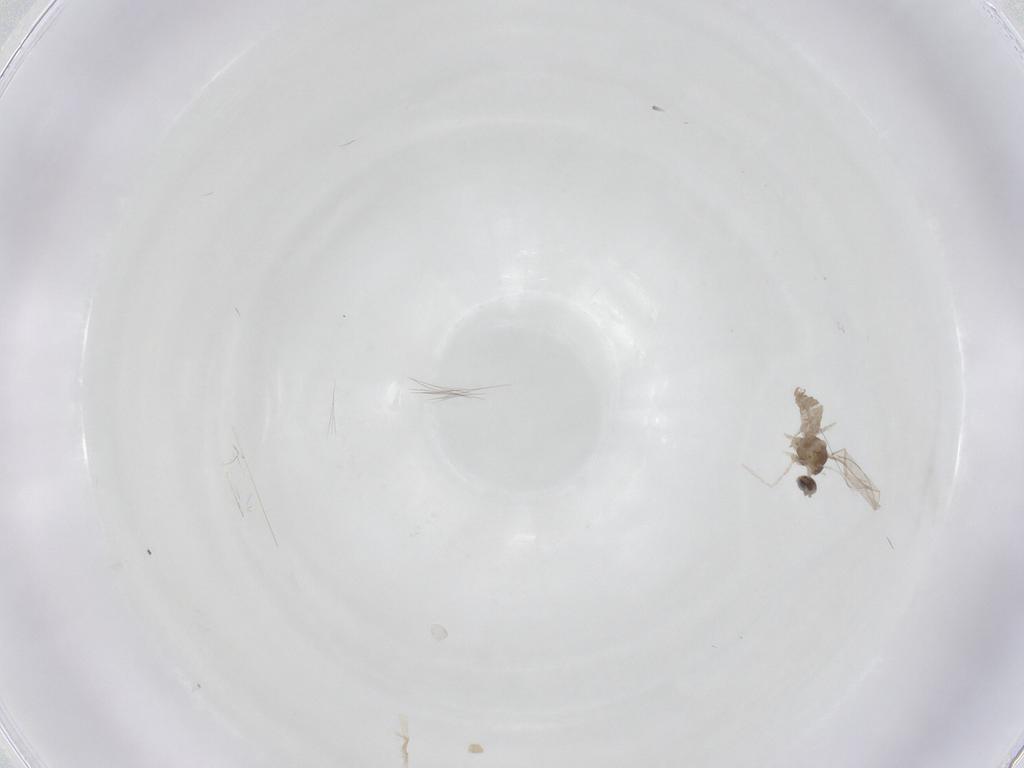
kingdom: Animalia
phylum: Arthropoda
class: Insecta
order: Diptera
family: Cecidomyiidae
